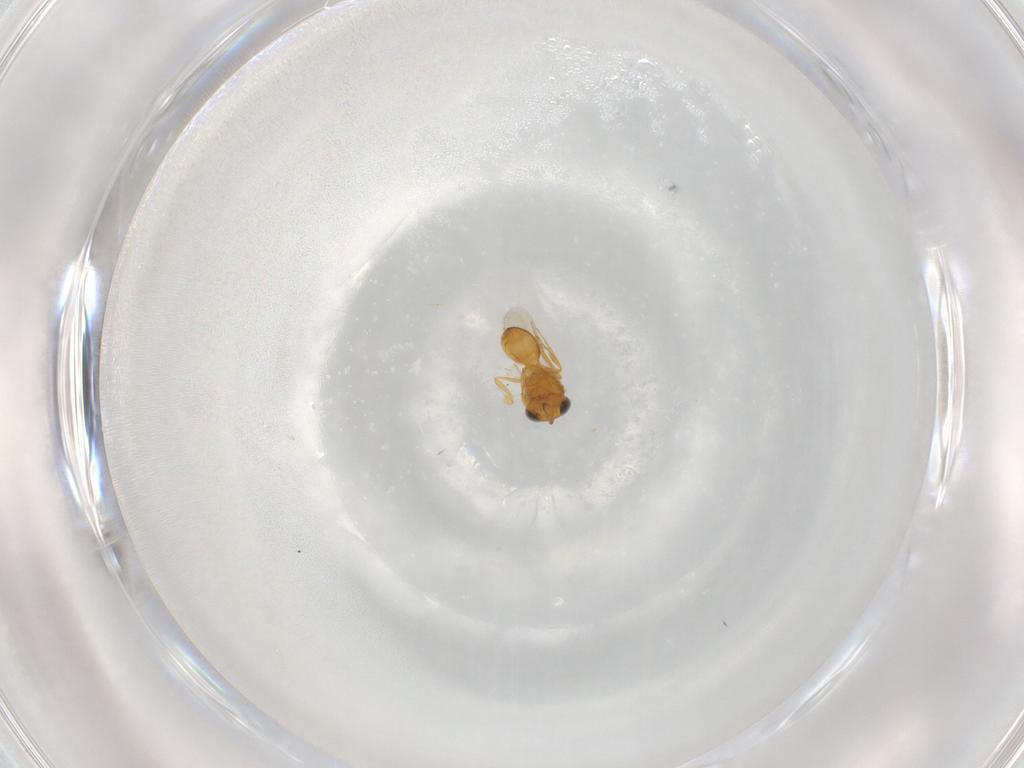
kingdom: Animalia
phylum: Arthropoda
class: Insecta
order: Hymenoptera
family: Scelionidae
